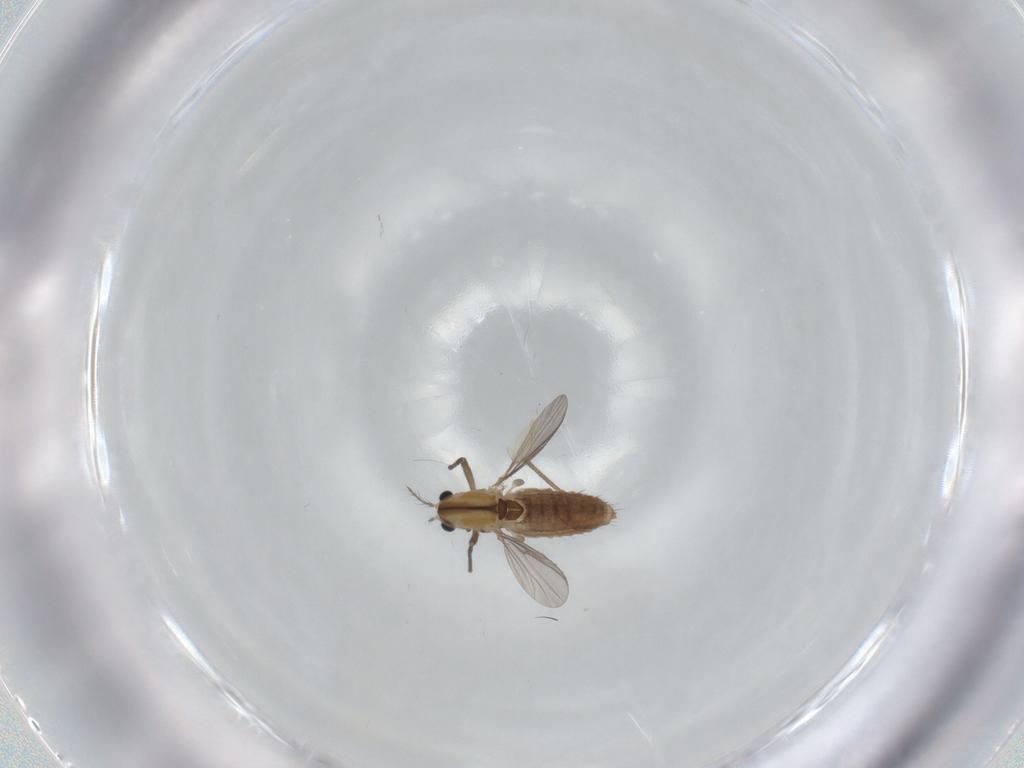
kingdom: Animalia
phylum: Arthropoda
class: Insecta
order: Diptera
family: Chironomidae
